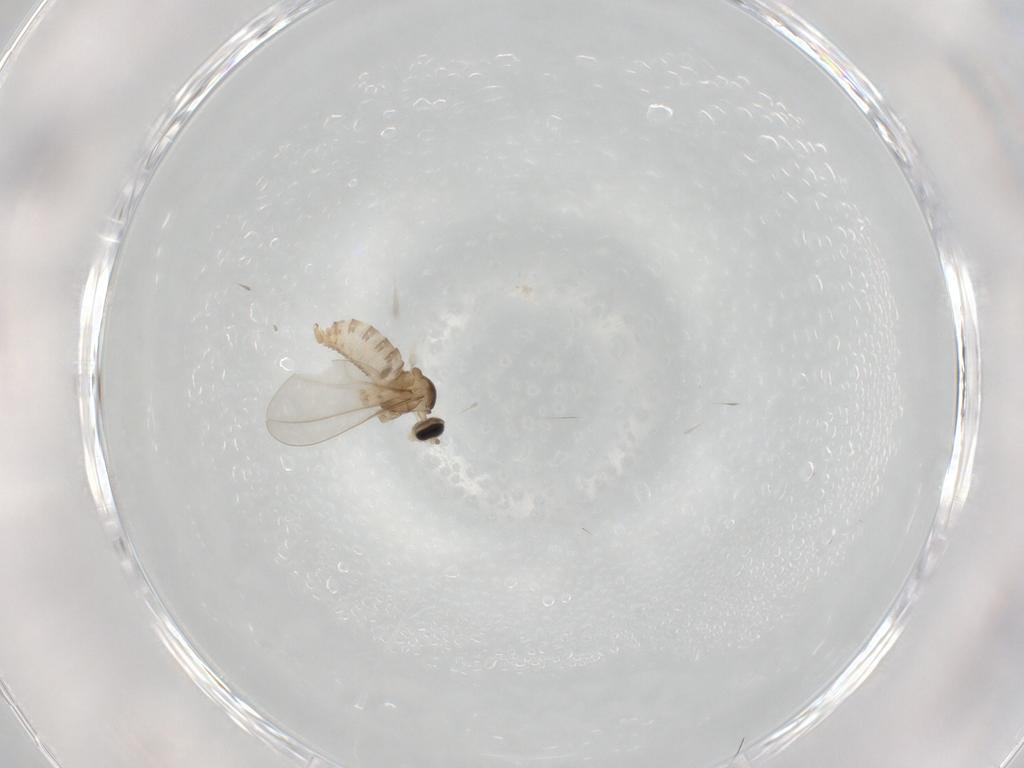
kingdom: Animalia
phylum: Arthropoda
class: Insecta
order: Diptera
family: Cecidomyiidae
